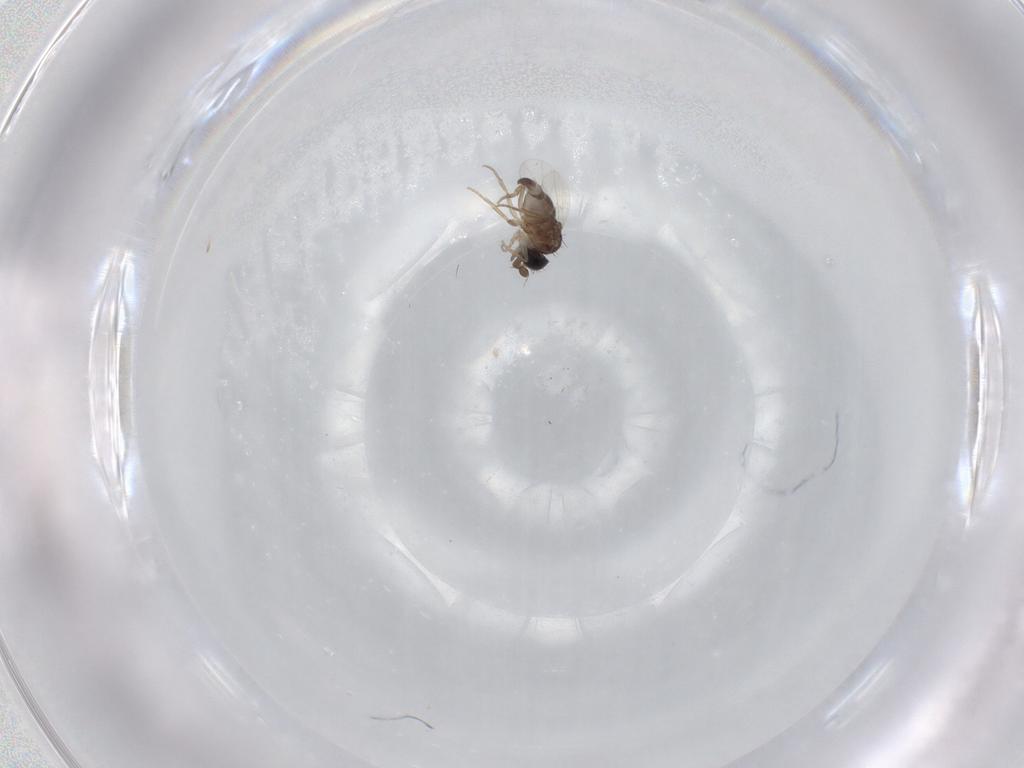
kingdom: Animalia
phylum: Arthropoda
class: Insecta
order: Diptera
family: Phoridae
